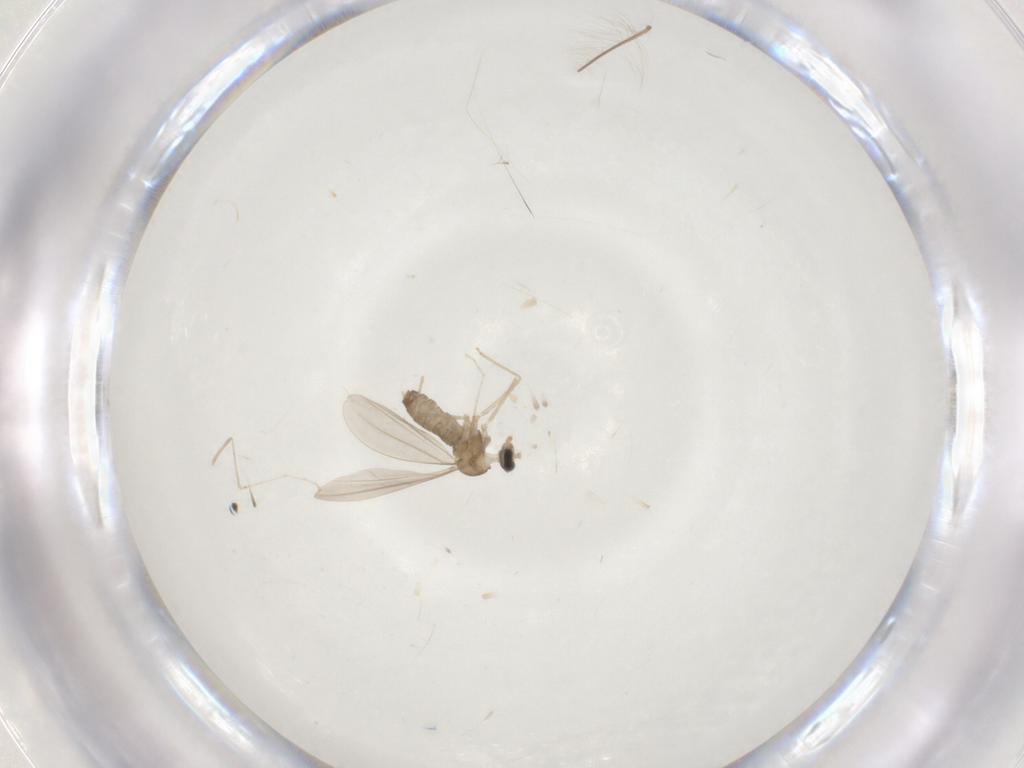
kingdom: Animalia
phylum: Arthropoda
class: Insecta
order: Diptera
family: Cecidomyiidae
